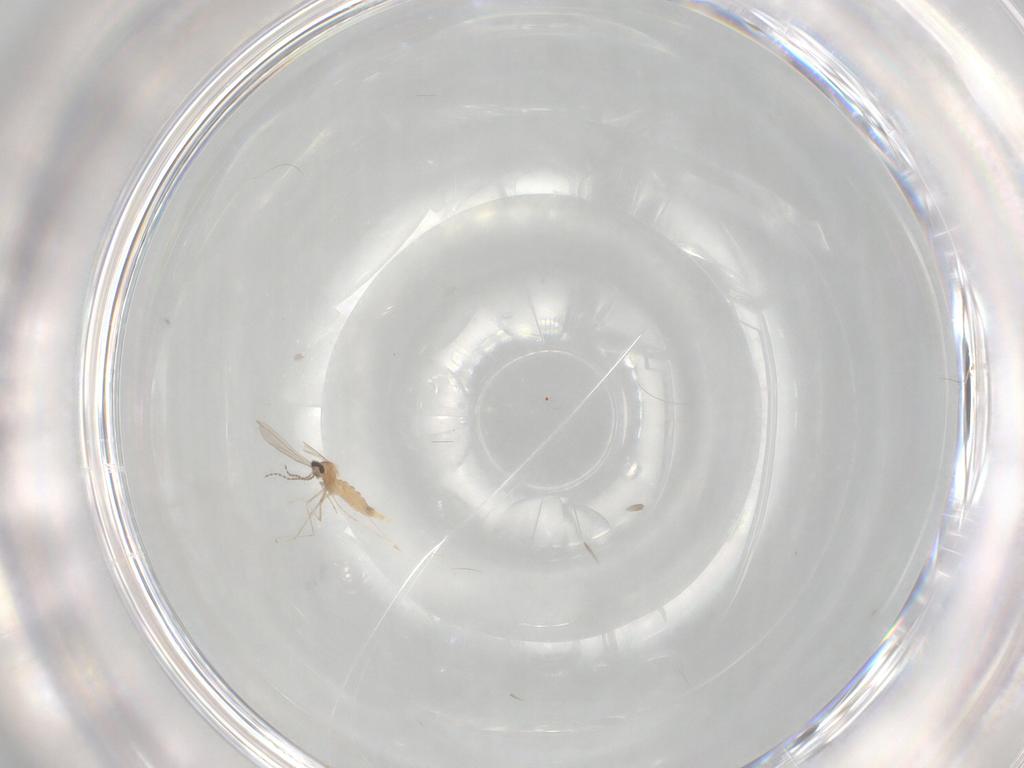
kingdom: Animalia
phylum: Arthropoda
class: Insecta
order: Diptera
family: Cecidomyiidae
